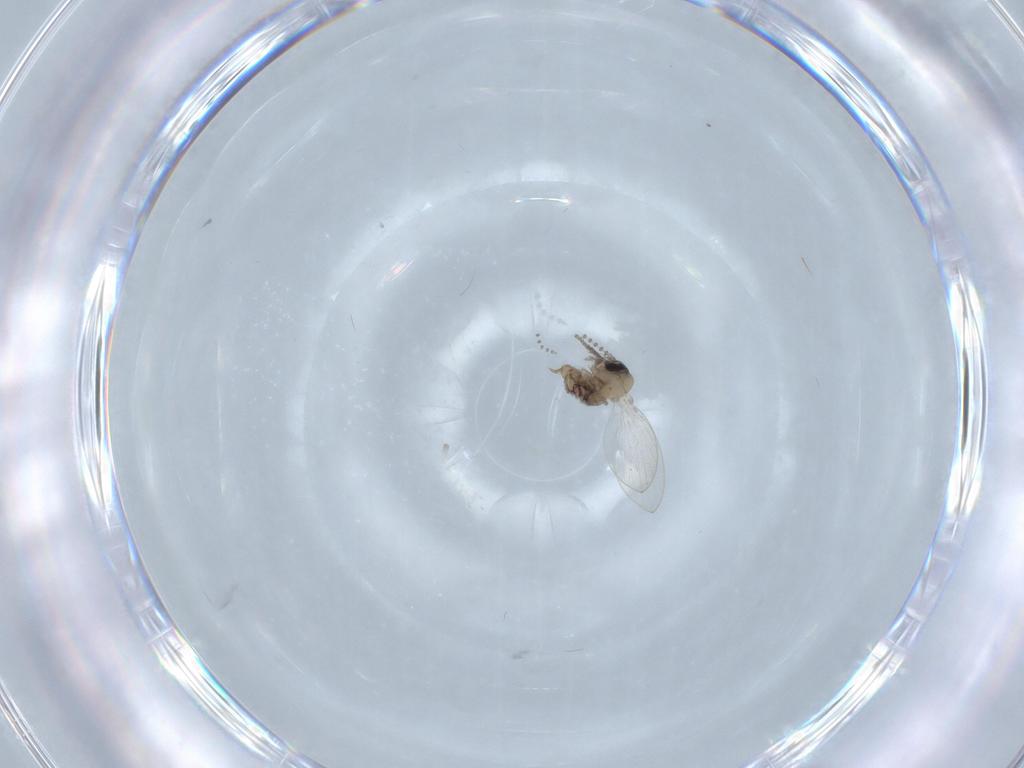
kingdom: Animalia
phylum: Arthropoda
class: Insecta
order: Diptera
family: Psychodidae
